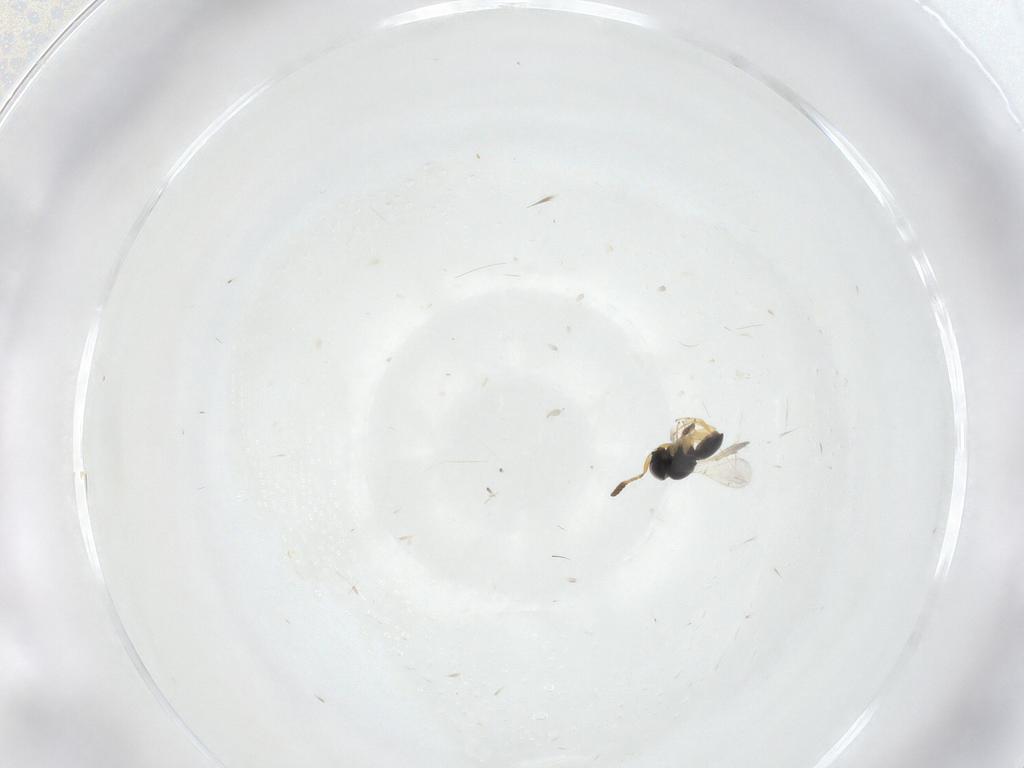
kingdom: Animalia
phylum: Arthropoda
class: Insecta
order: Hymenoptera
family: Scelionidae
